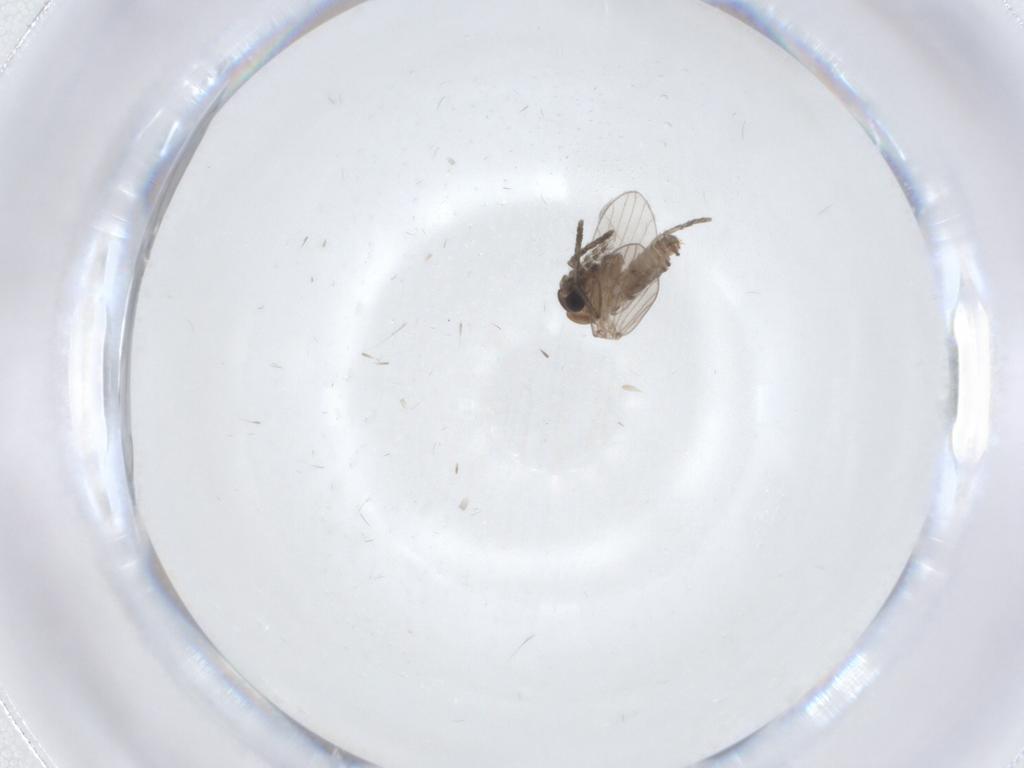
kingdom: Animalia
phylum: Arthropoda
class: Insecta
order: Diptera
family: Psychodidae
